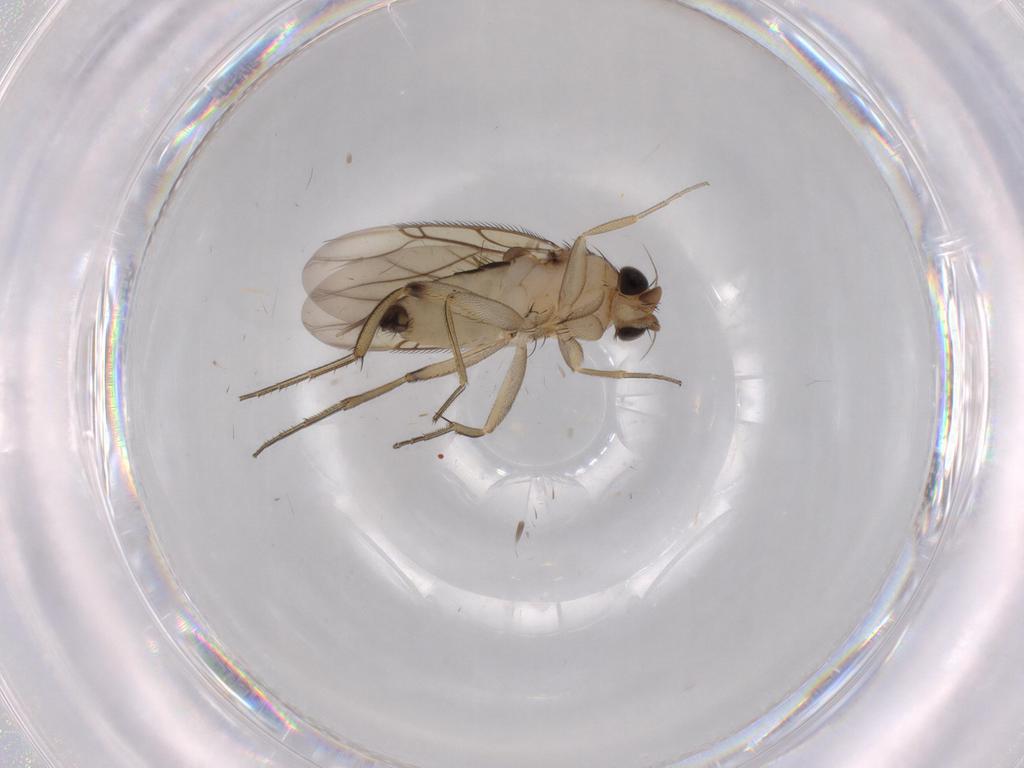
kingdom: Animalia
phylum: Arthropoda
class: Insecta
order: Diptera
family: Phoridae
